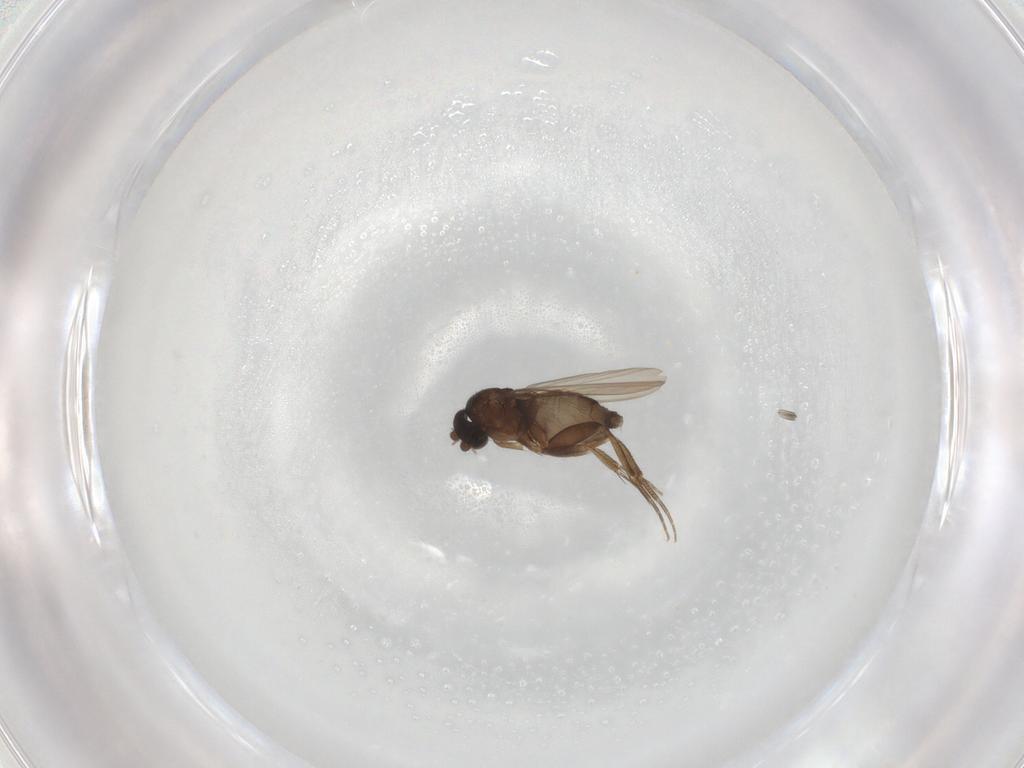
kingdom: Animalia
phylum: Arthropoda
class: Insecta
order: Diptera
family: Phoridae
